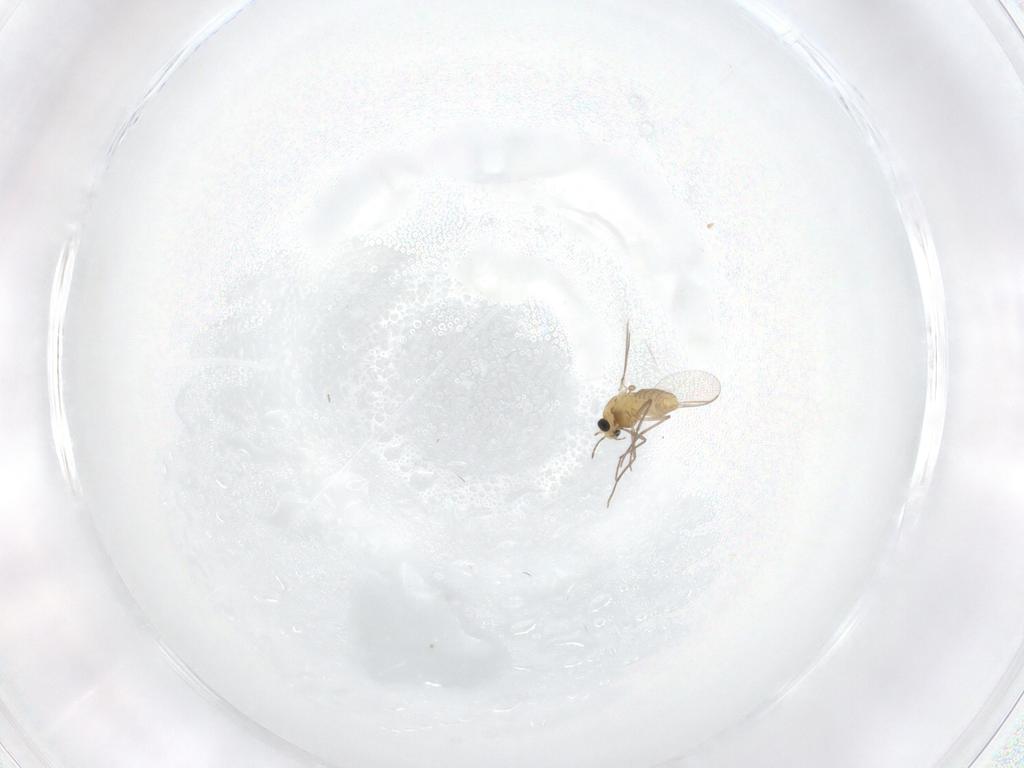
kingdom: Animalia
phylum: Arthropoda
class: Insecta
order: Diptera
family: Chironomidae
